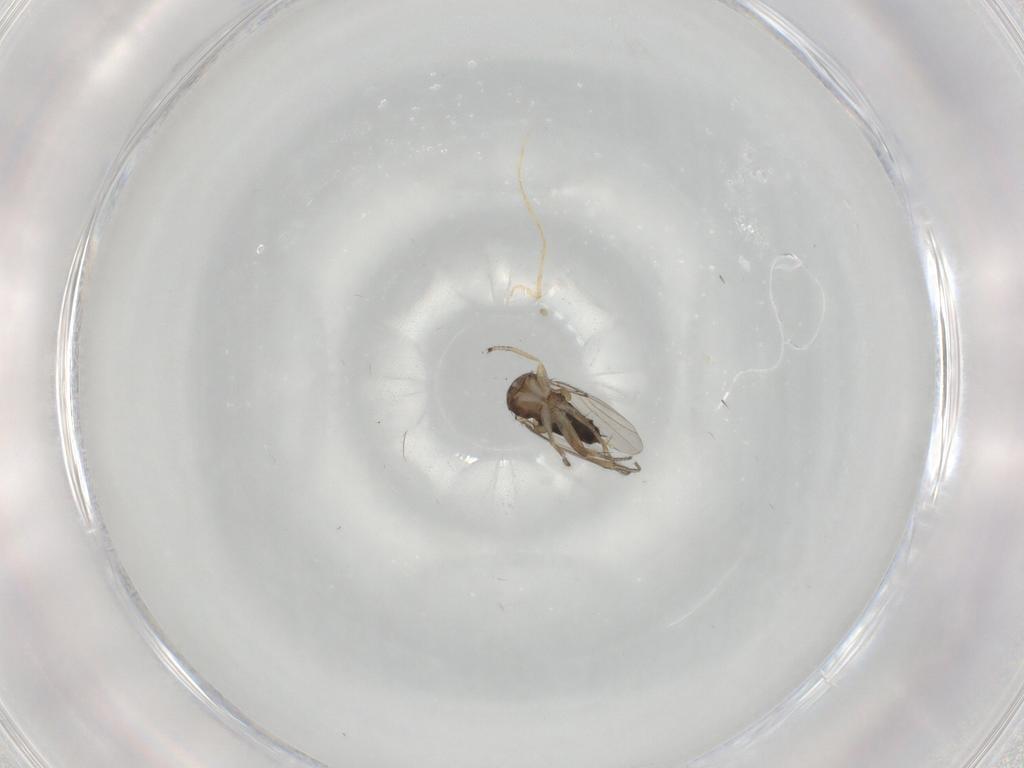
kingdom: Animalia
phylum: Arthropoda
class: Insecta
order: Diptera
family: Phoridae
